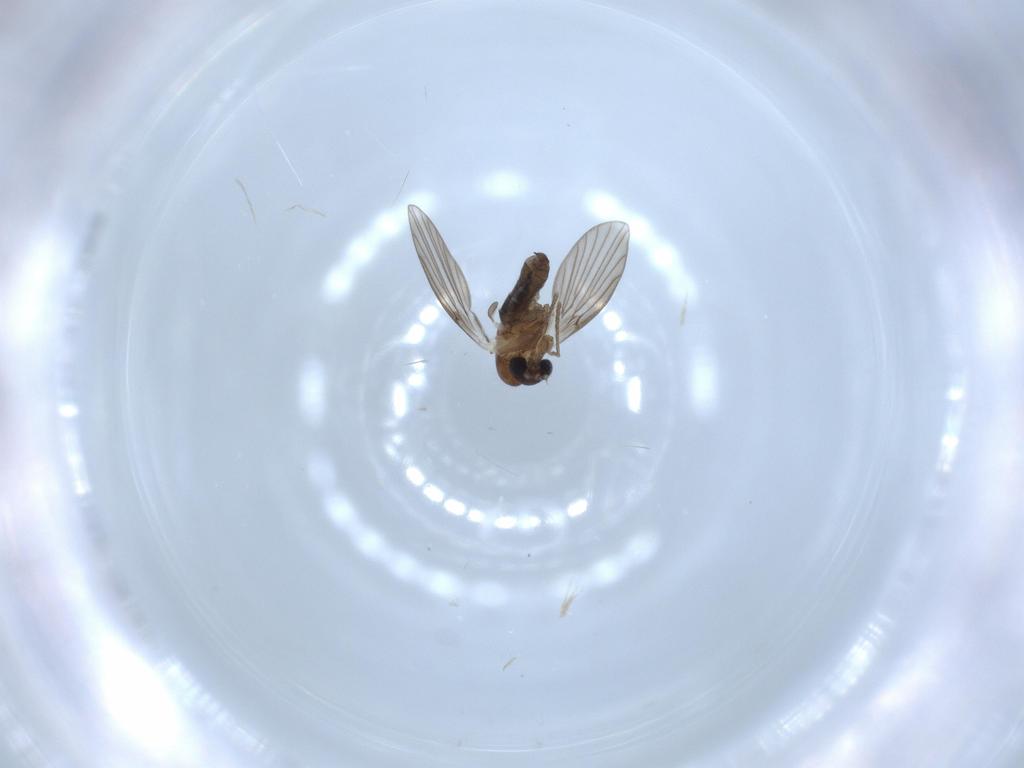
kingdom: Animalia
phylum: Arthropoda
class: Insecta
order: Diptera
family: Psychodidae
